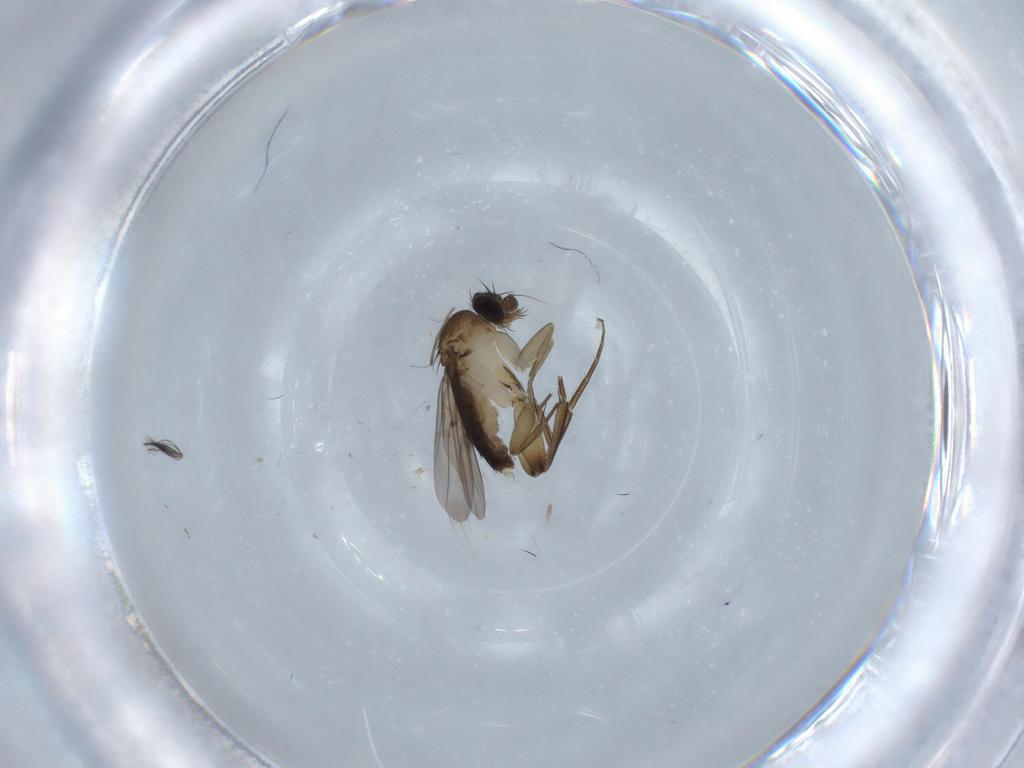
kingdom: Animalia
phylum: Arthropoda
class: Insecta
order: Diptera
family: Phoridae
